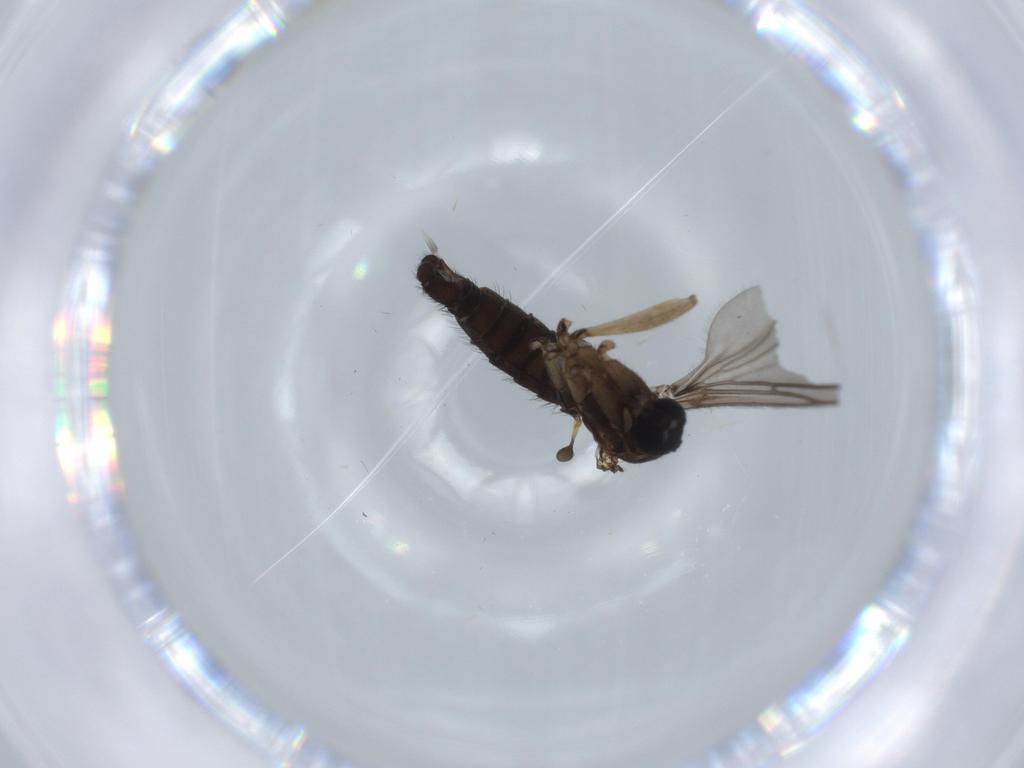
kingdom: Animalia
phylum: Arthropoda
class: Insecta
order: Diptera
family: Sciaridae
